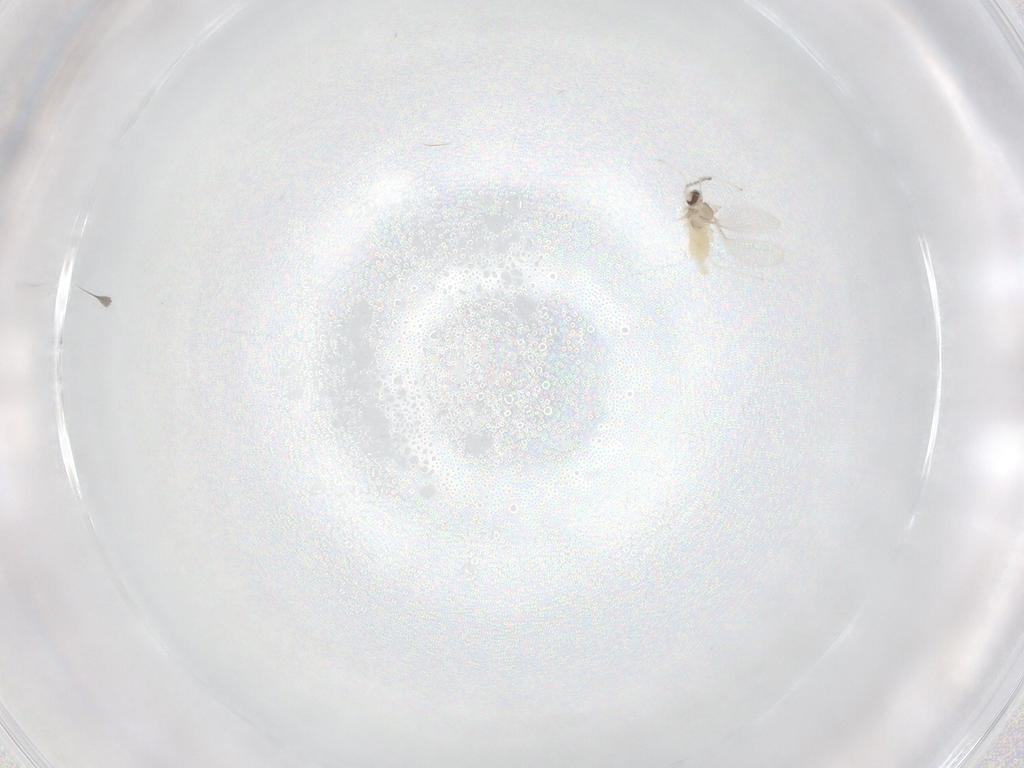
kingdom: Animalia
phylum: Arthropoda
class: Insecta
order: Diptera
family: Cecidomyiidae
